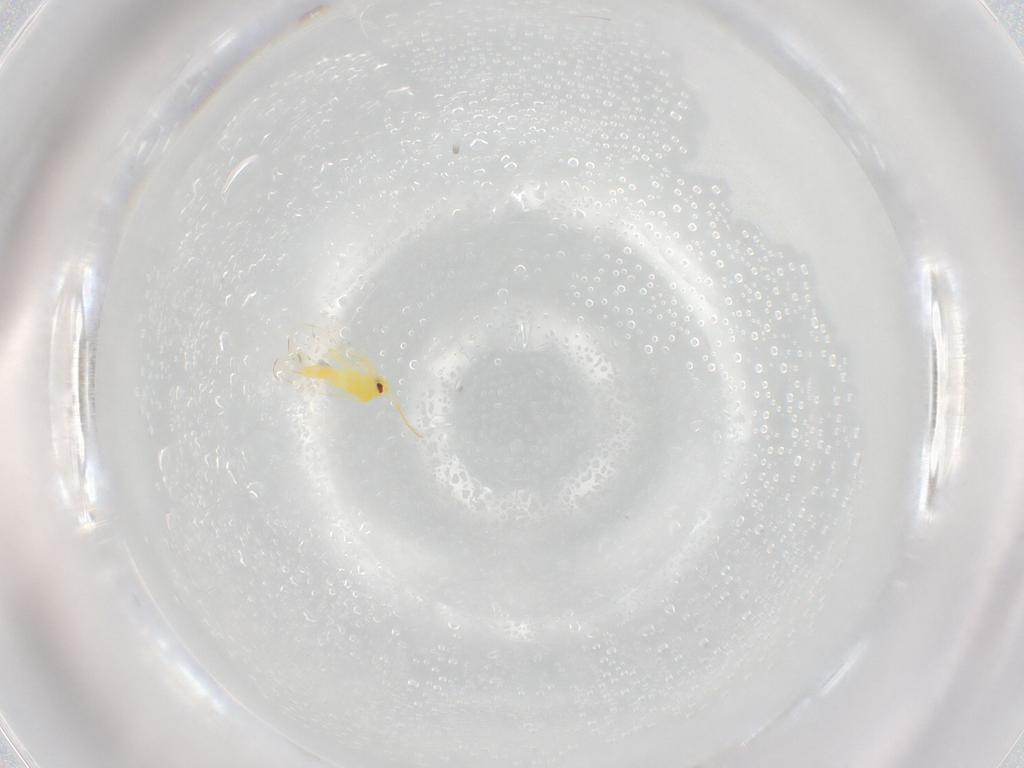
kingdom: Animalia
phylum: Arthropoda
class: Insecta
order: Hemiptera
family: Aleyrodidae
